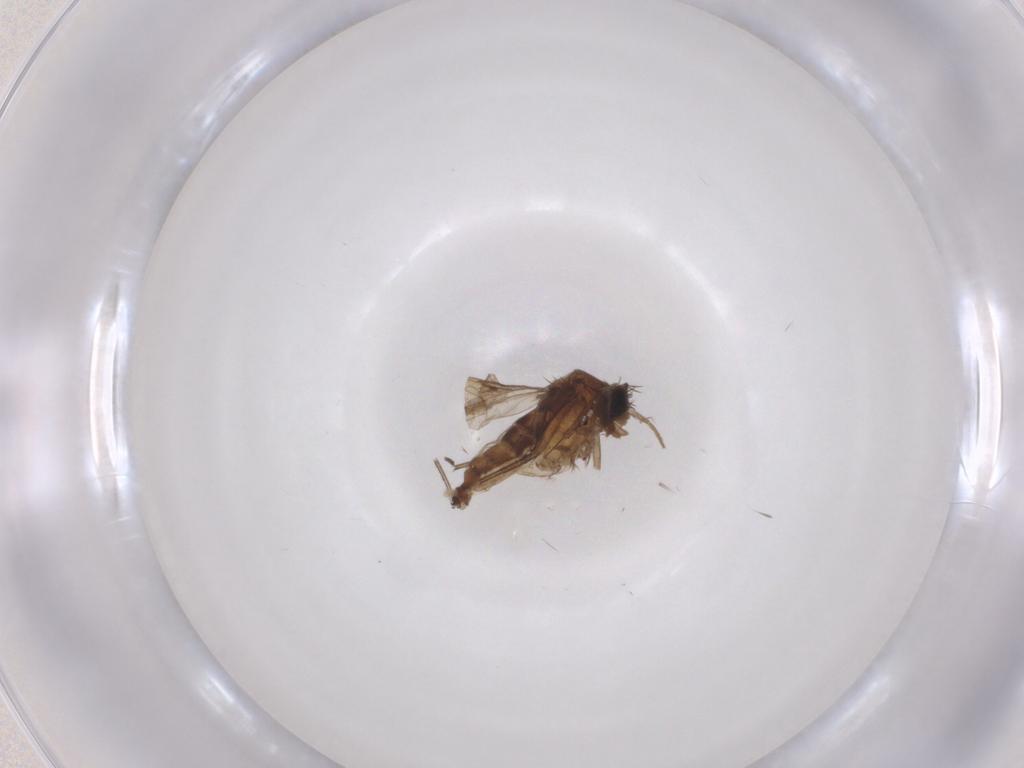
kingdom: Animalia
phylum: Arthropoda
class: Insecta
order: Diptera
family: Phoridae
